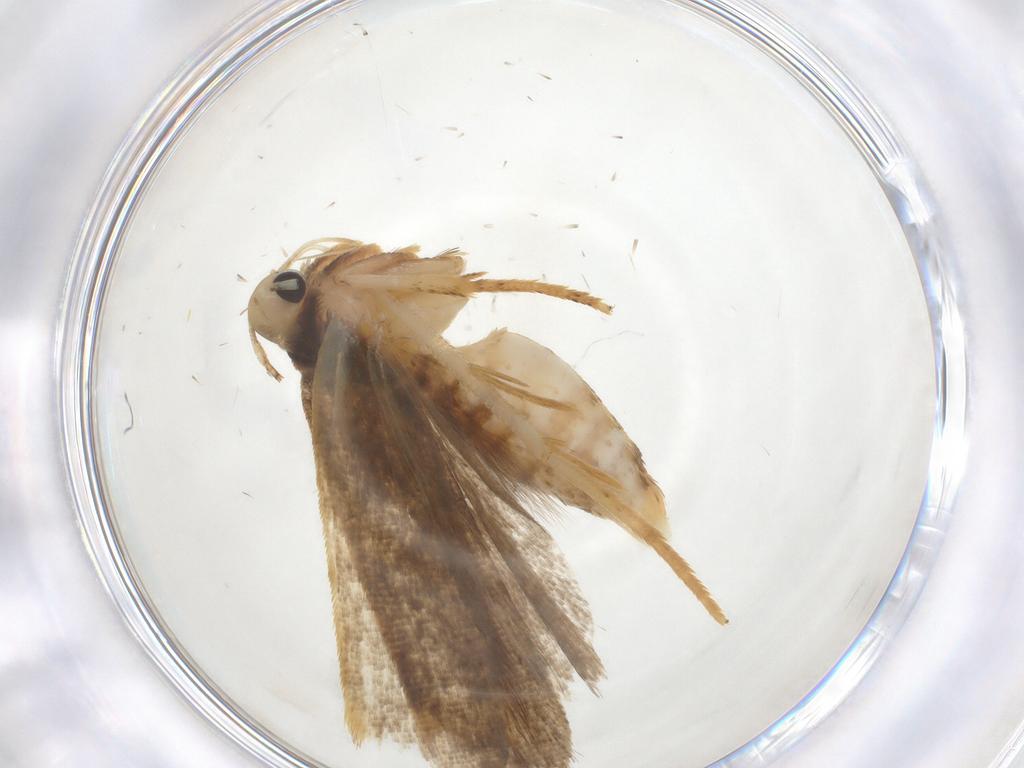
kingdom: Animalia
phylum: Arthropoda
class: Insecta
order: Lepidoptera
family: Gelechiidae
